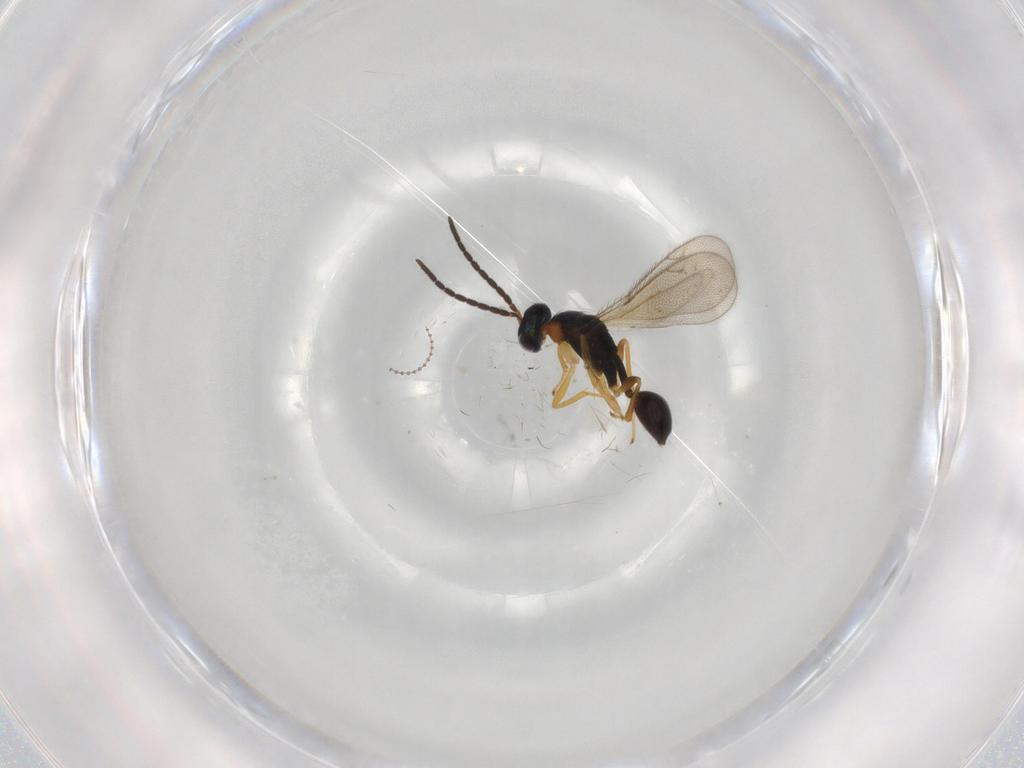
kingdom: Animalia
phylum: Arthropoda
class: Insecta
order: Hymenoptera
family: Diparidae
